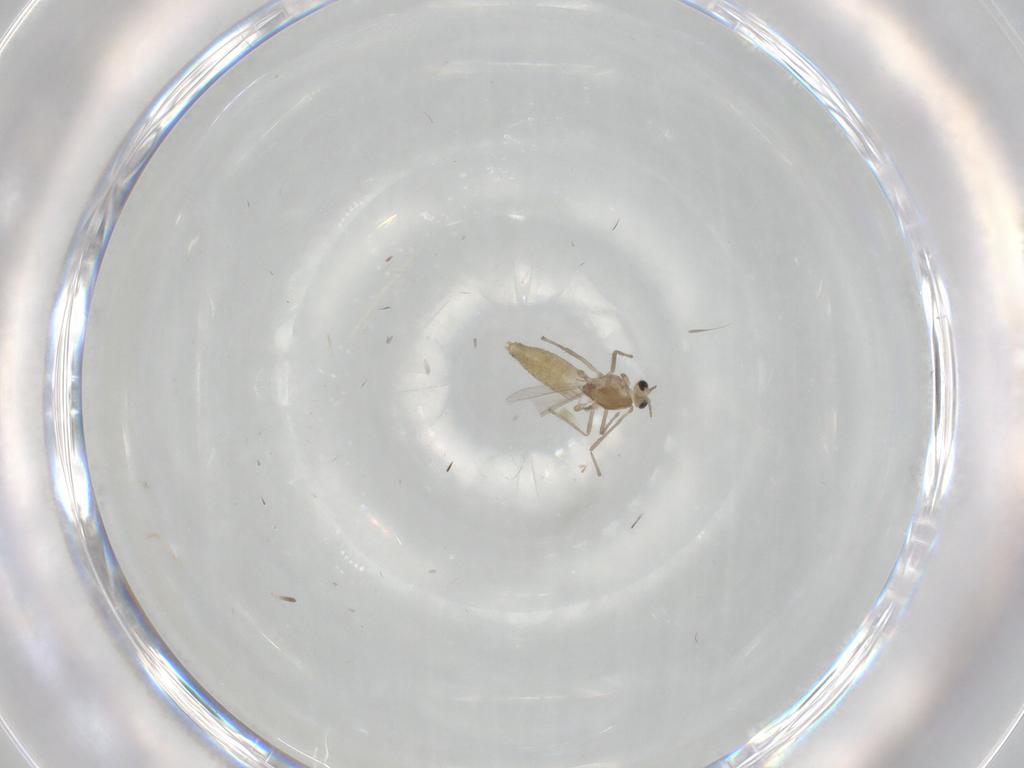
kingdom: Animalia
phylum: Arthropoda
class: Insecta
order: Diptera
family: Chironomidae
